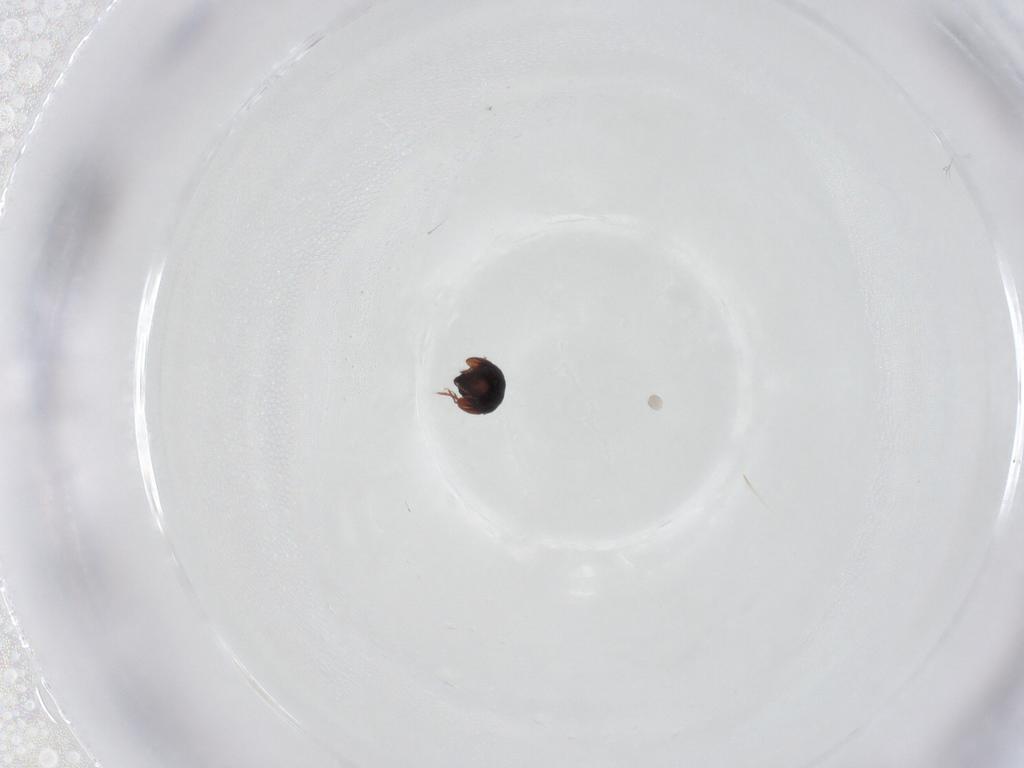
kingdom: Animalia
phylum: Arthropoda
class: Arachnida
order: Sarcoptiformes
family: Galumnidae
